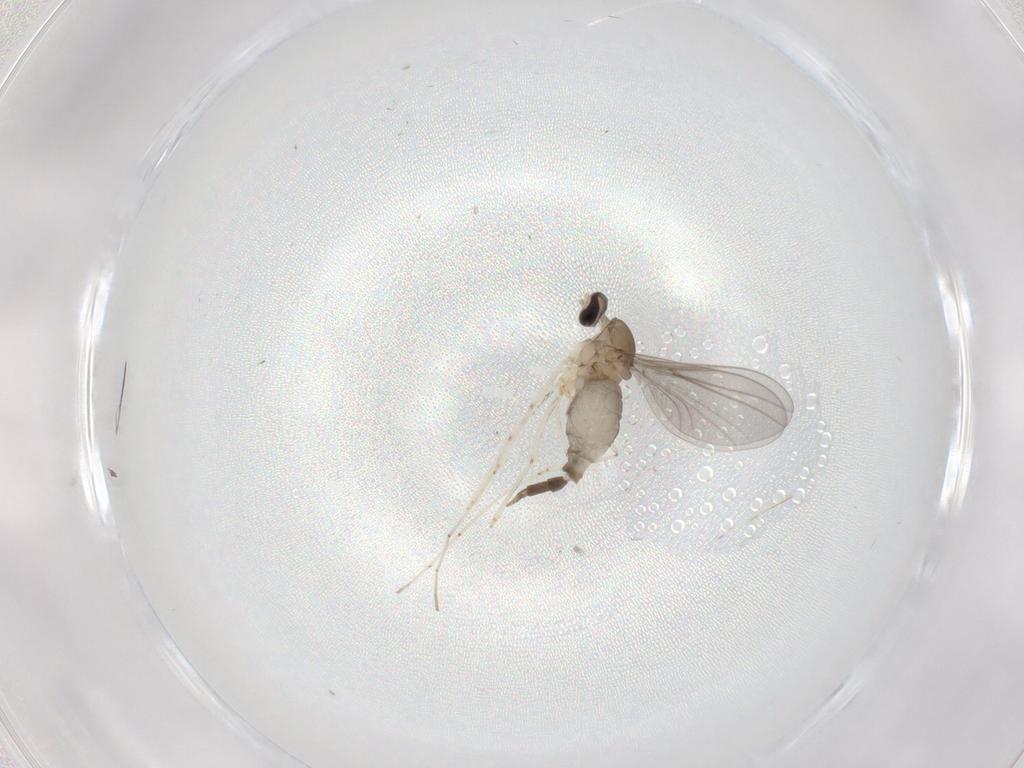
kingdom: Animalia
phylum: Arthropoda
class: Insecta
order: Diptera
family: Cecidomyiidae
